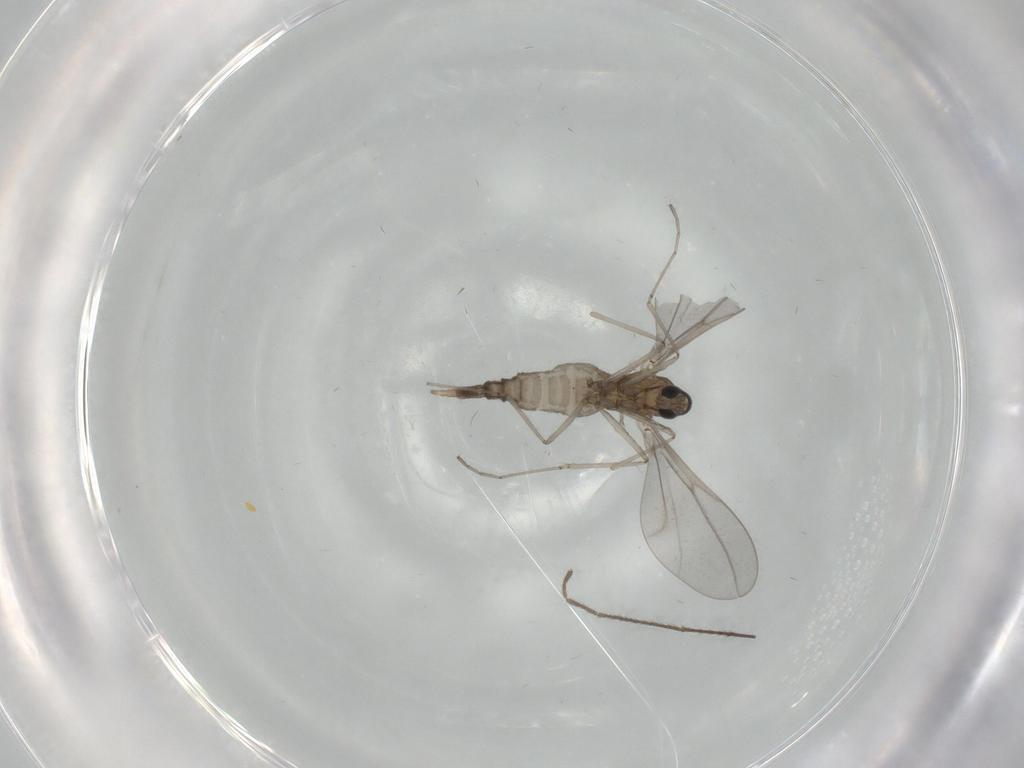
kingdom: Animalia
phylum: Arthropoda
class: Insecta
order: Diptera
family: Cecidomyiidae
